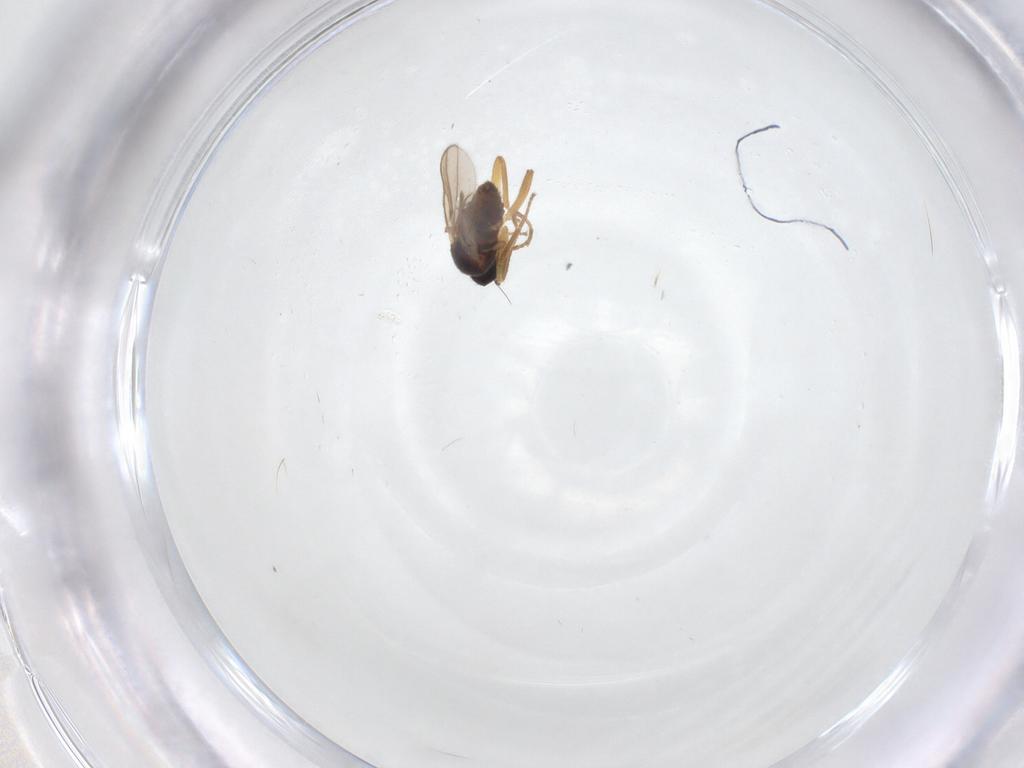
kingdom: Animalia
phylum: Arthropoda
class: Insecta
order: Diptera
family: Hybotidae
